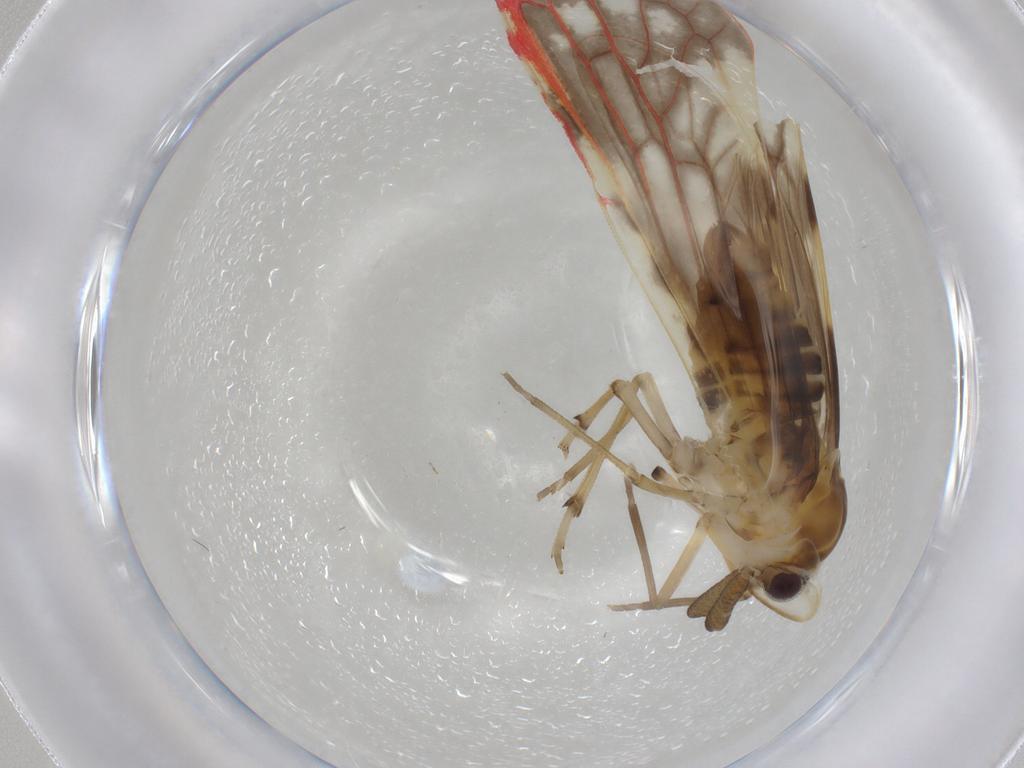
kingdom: Animalia
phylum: Arthropoda
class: Insecta
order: Hemiptera
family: Derbidae
